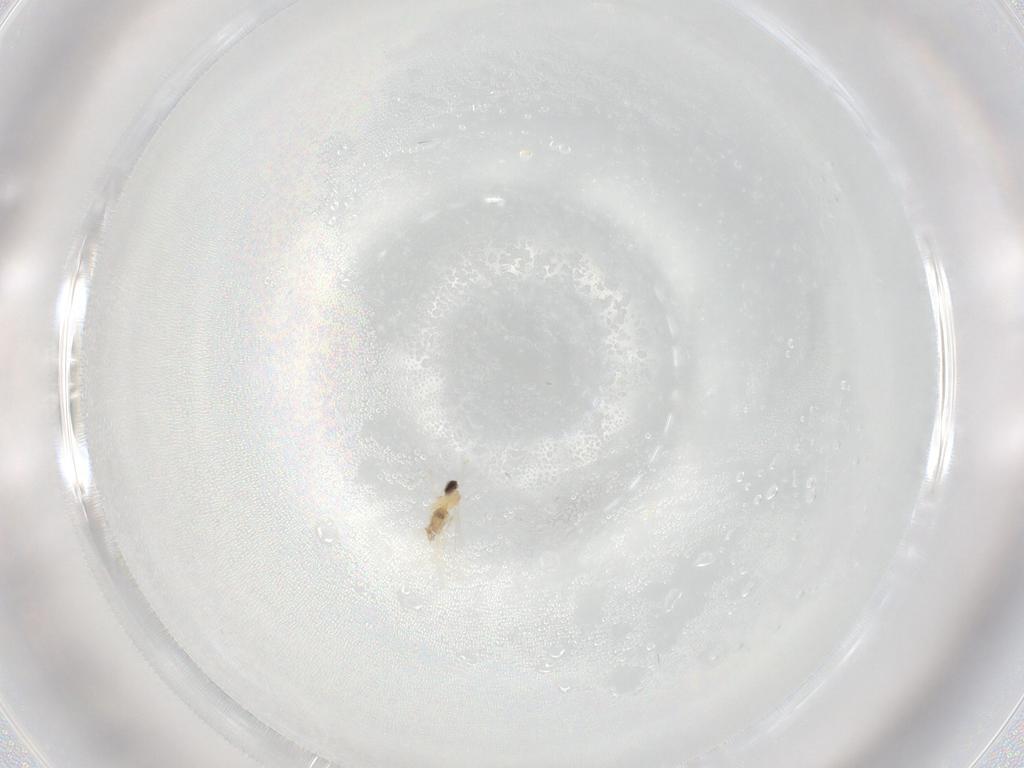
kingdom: Animalia
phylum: Arthropoda
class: Insecta
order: Diptera
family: Cecidomyiidae
